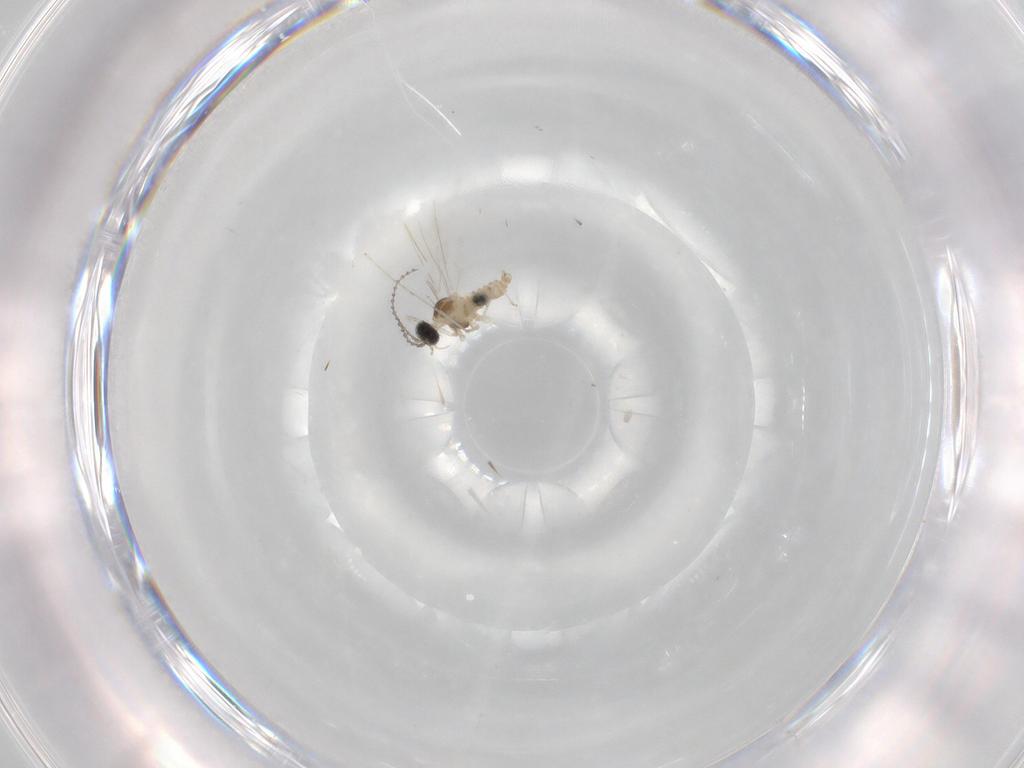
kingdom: Animalia
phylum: Arthropoda
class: Insecta
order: Diptera
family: Cecidomyiidae
